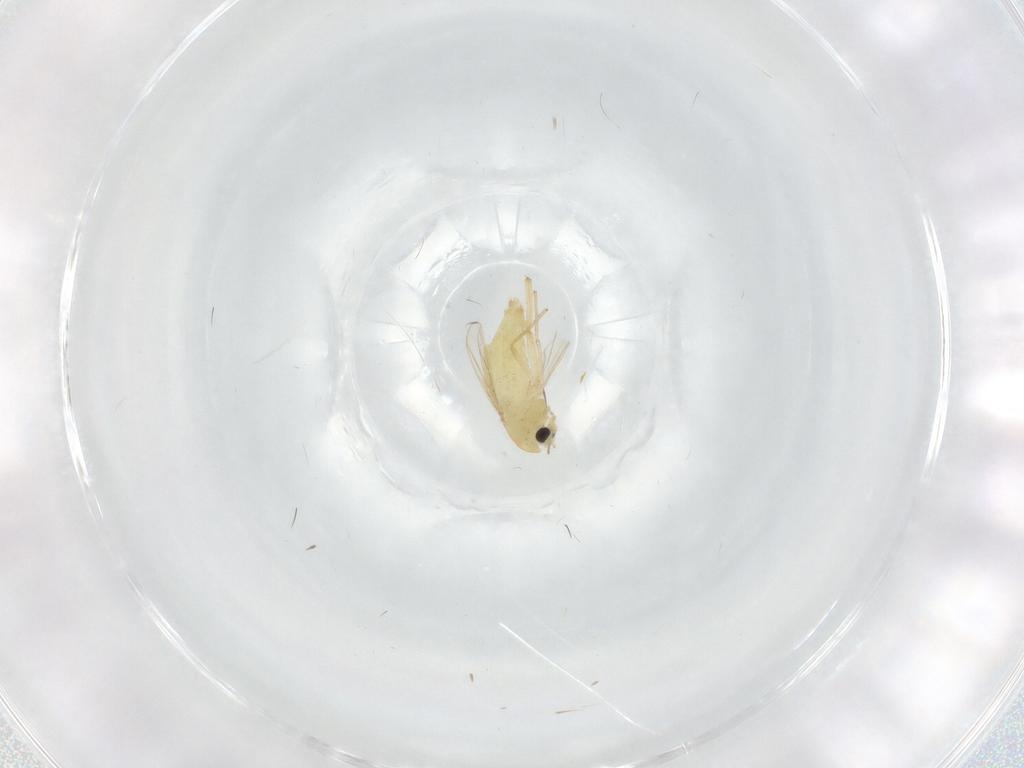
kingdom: Animalia
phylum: Arthropoda
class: Insecta
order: Diptera
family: Chironomidae
